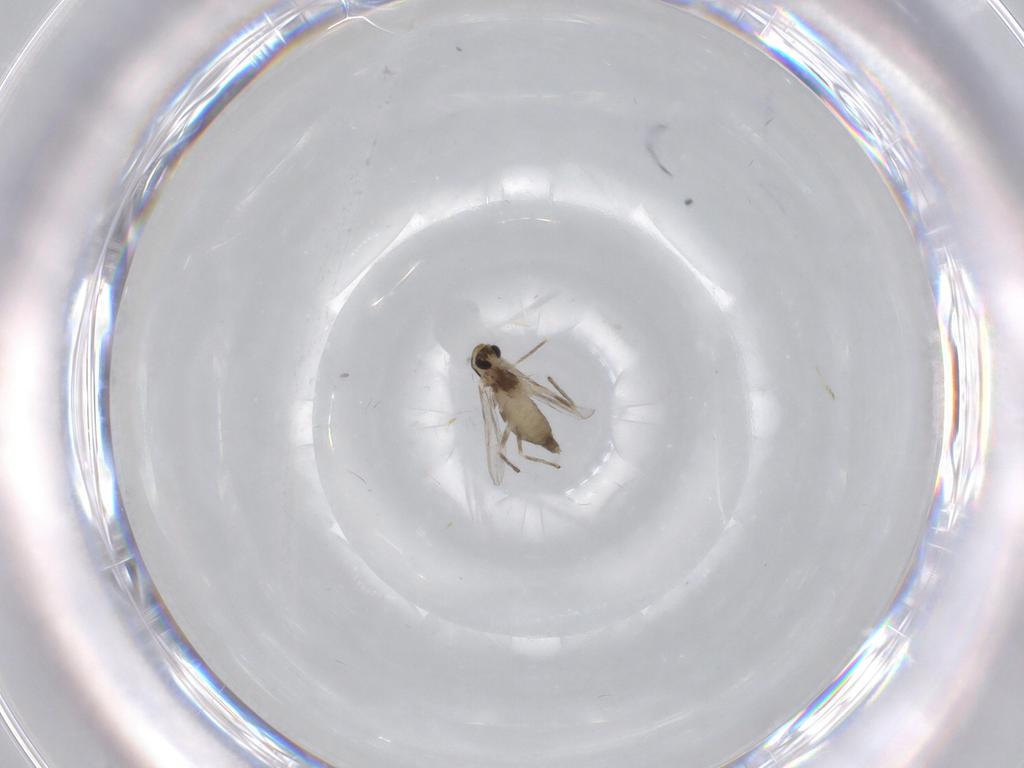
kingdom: Animalia
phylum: Arthropoda
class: Insecta
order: Diptera
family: Chironomidae
